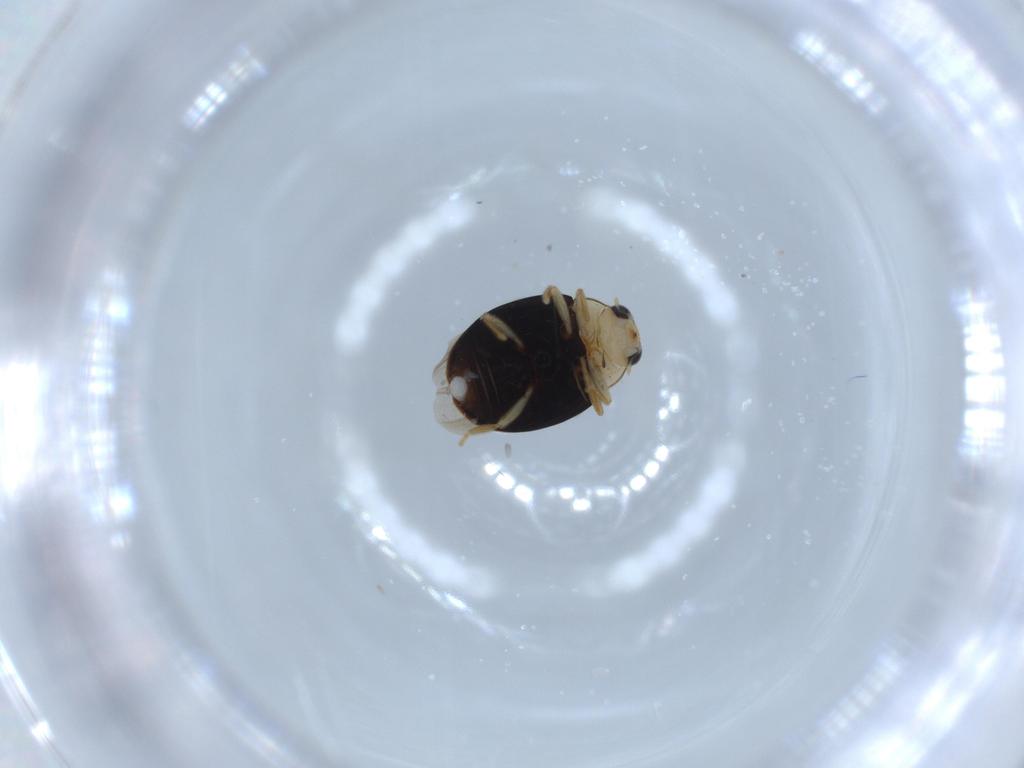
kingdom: Animalia
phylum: Arthropoda
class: Insecta
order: Coleoptera
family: Coccinellidae
